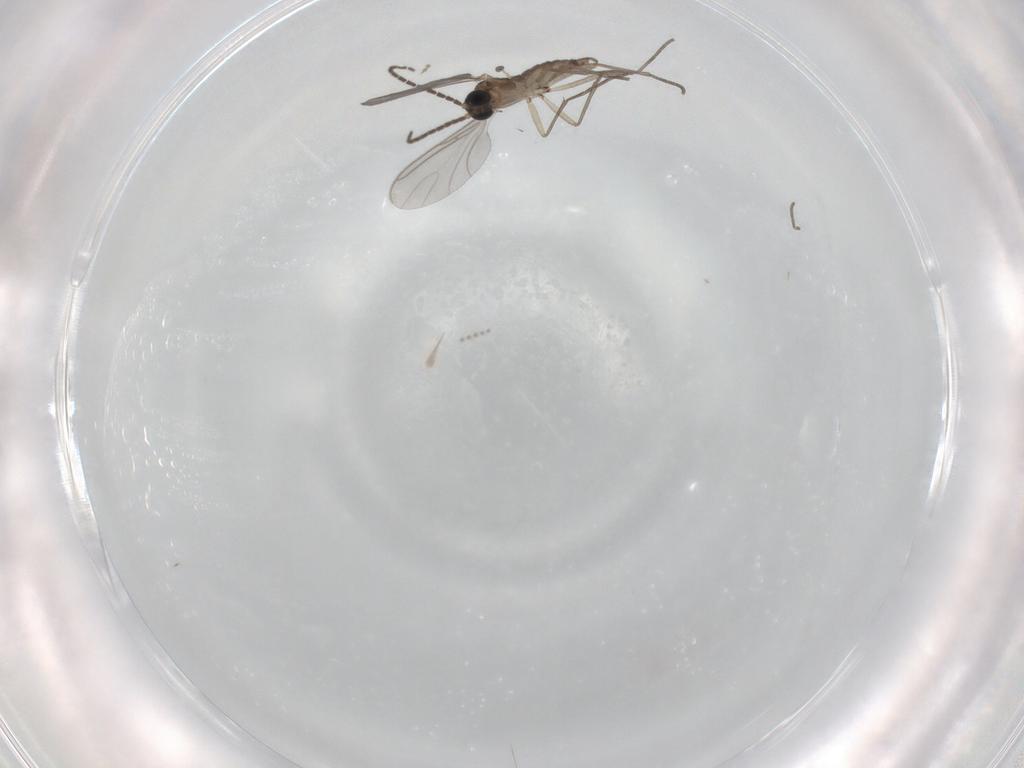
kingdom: Animalia
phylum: Arthropoda
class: Insecta
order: Diptera
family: Sciaridae
